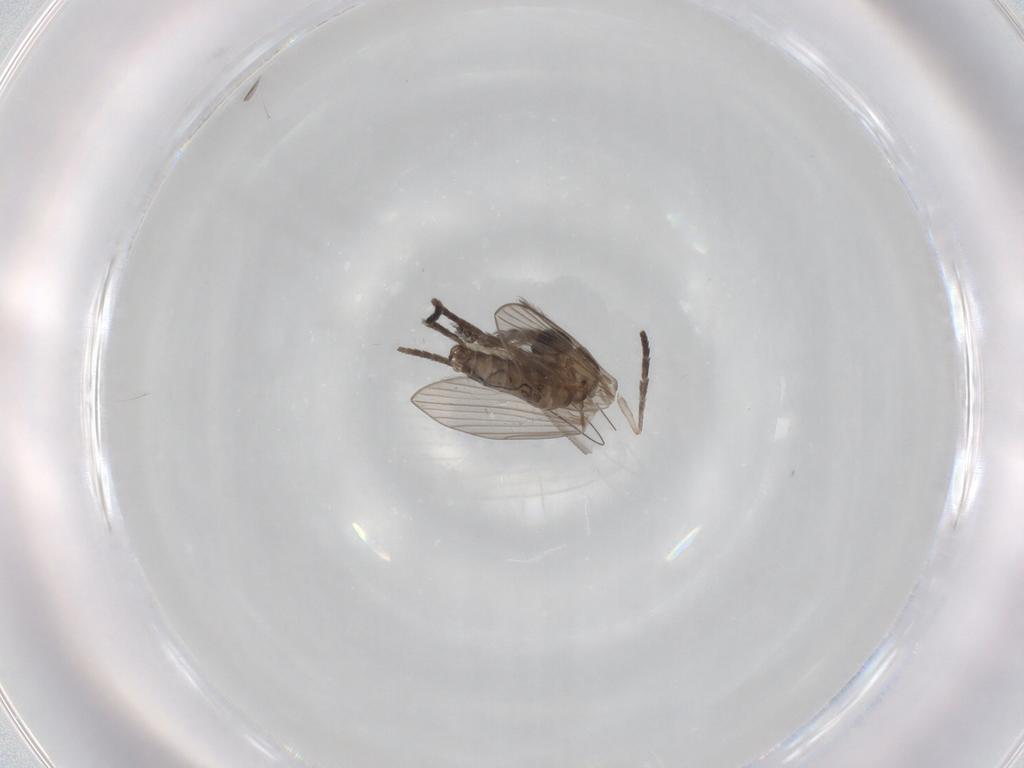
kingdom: Animalia
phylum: Arthropoda
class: Insecta
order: Diptera
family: Psychodidae
